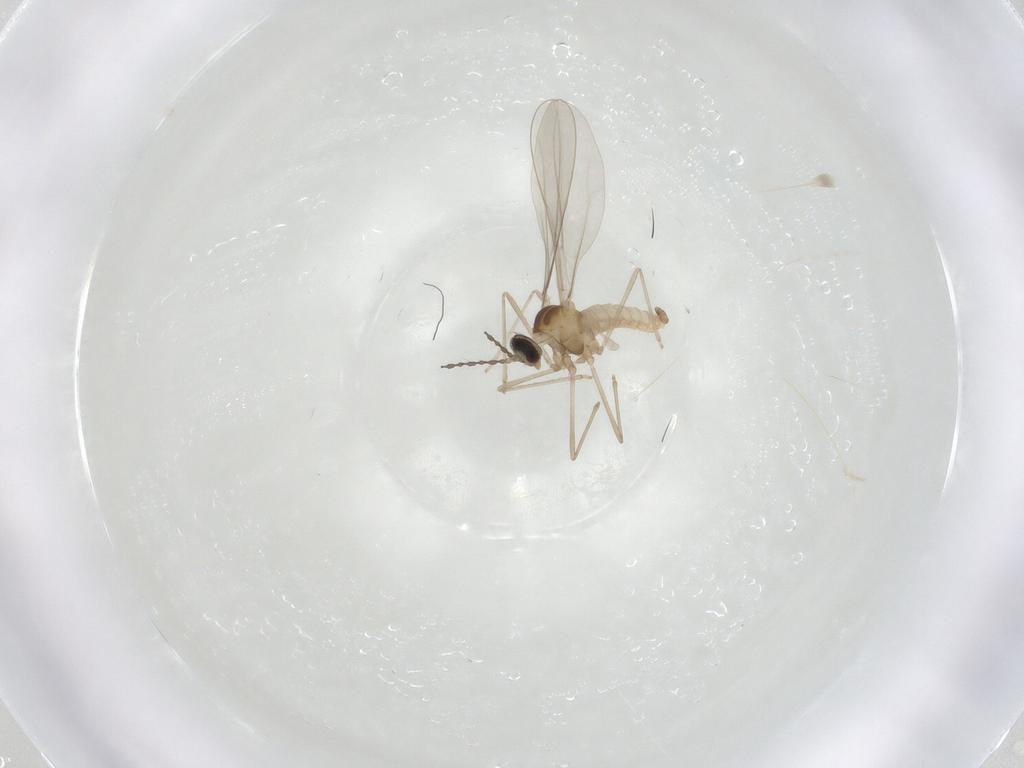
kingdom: Animalia
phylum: Arthropoda
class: Insecta
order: Diptera
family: Cecidomyiidae
